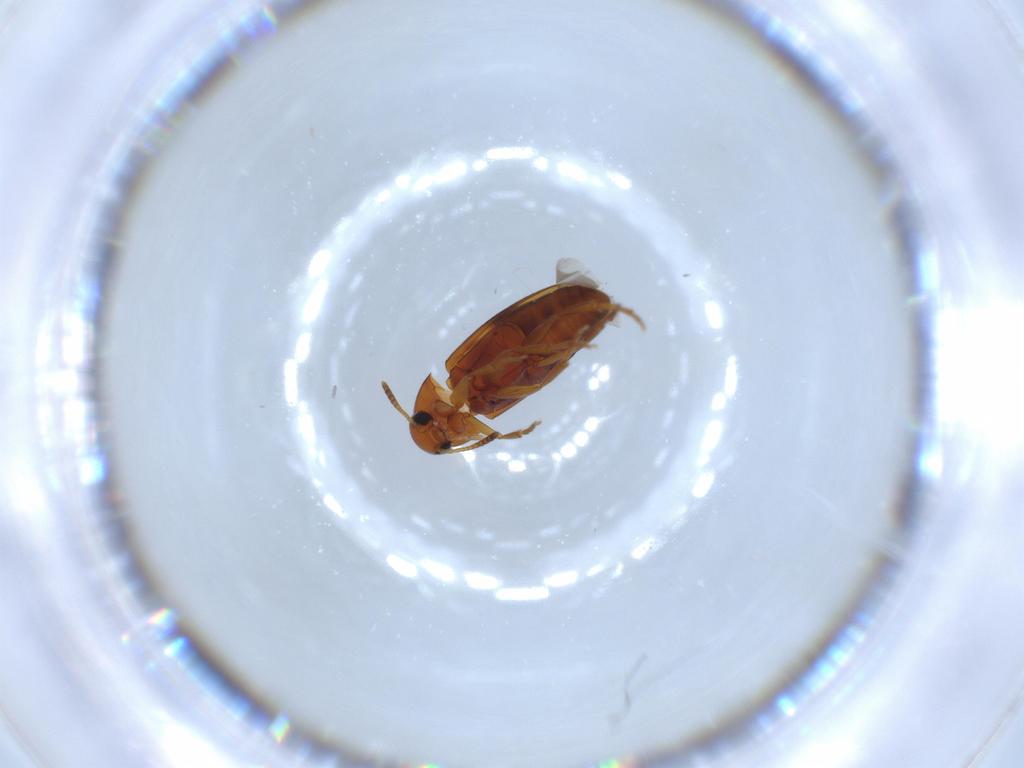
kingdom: Animalia
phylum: Arthropoda
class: Insecta
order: Coleoptera
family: Scraptiidae
